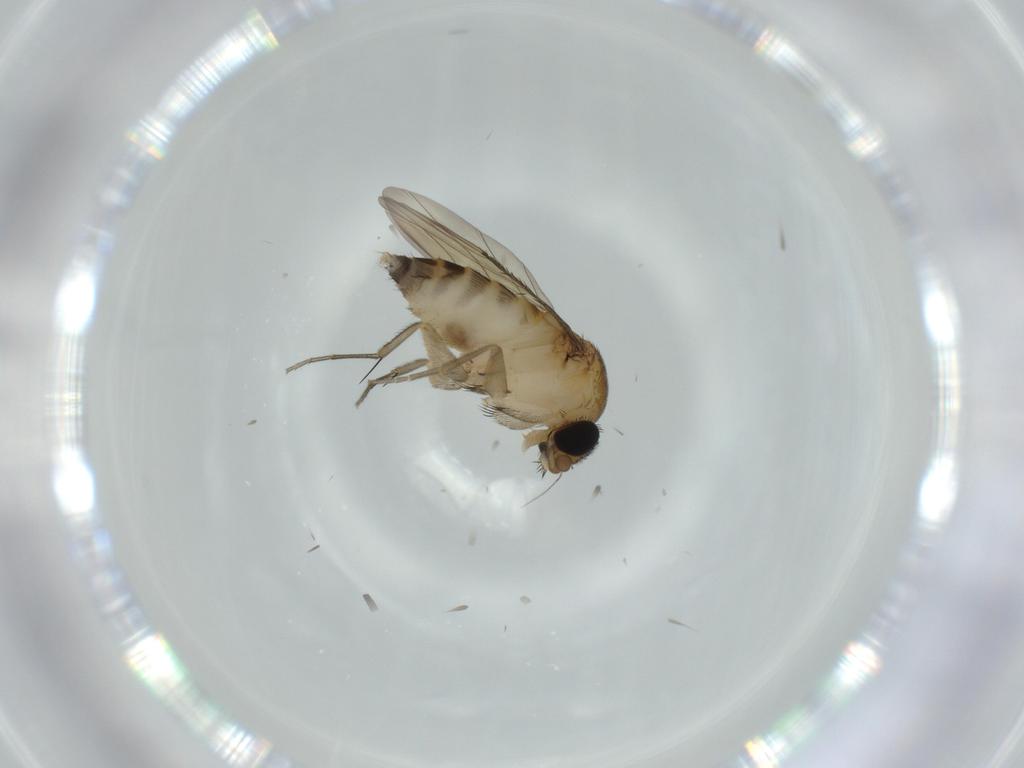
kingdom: Animalia
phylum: Arthropoda
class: Insecta
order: Diptera
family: Phoridae
